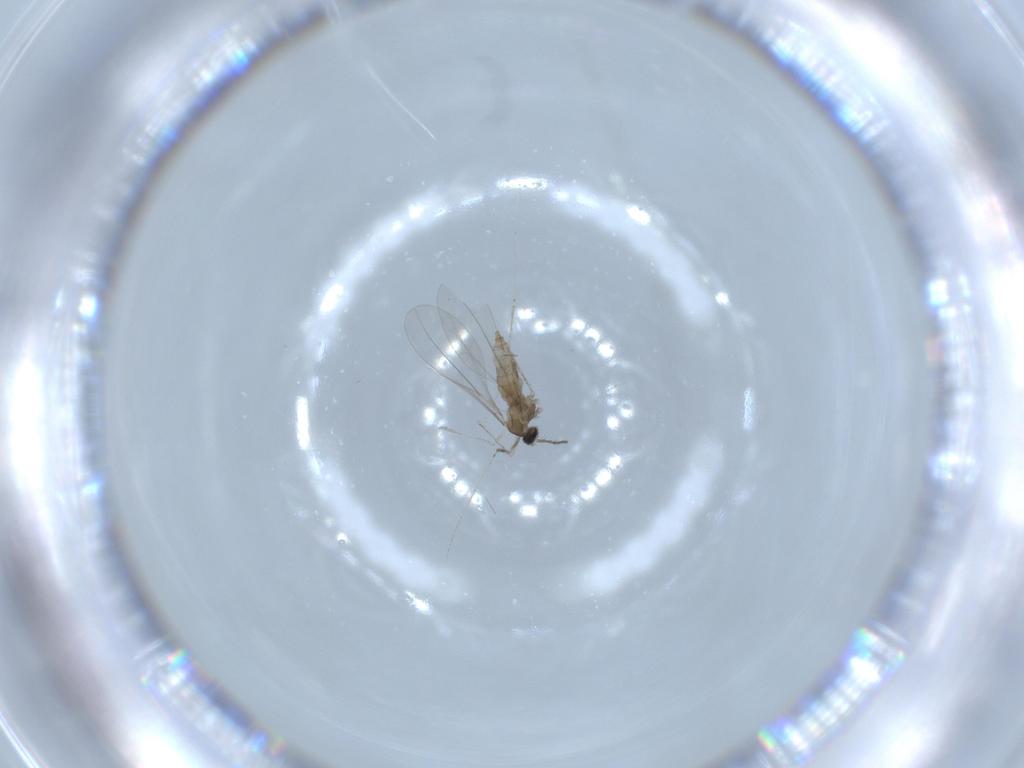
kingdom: Animalia
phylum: Arthropoda
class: Insecta
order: Diptera
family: Cecidomyiidae
